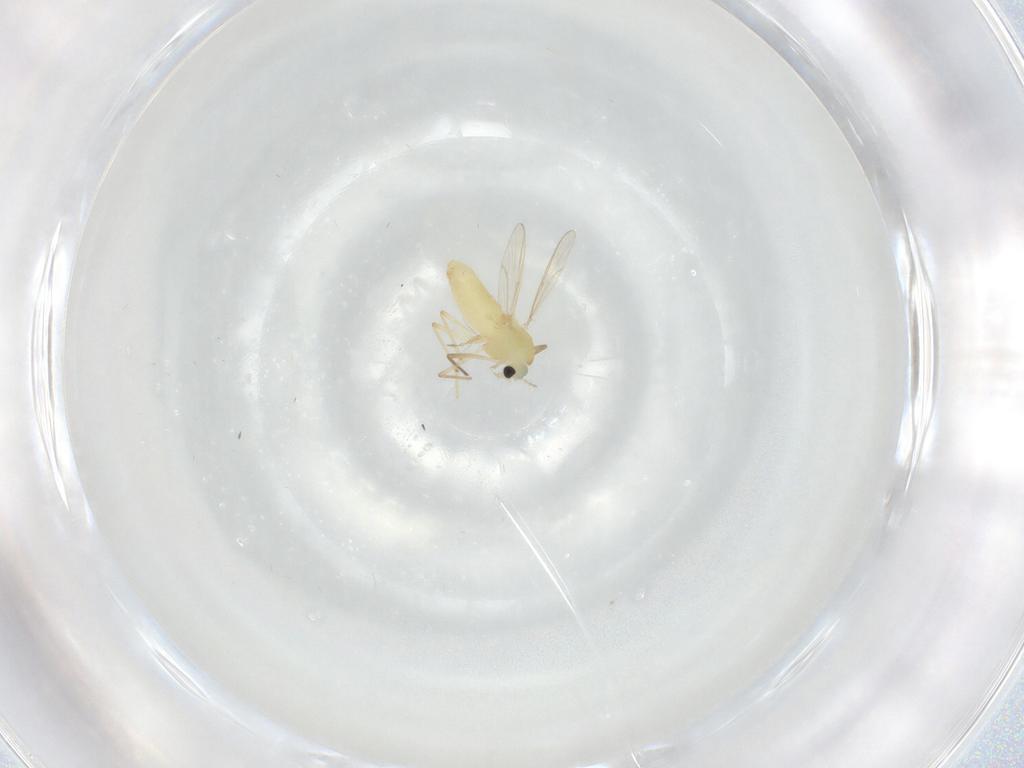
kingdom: Animalia
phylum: Arthropoda
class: Insecta
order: Diptera
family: Chironomidae
